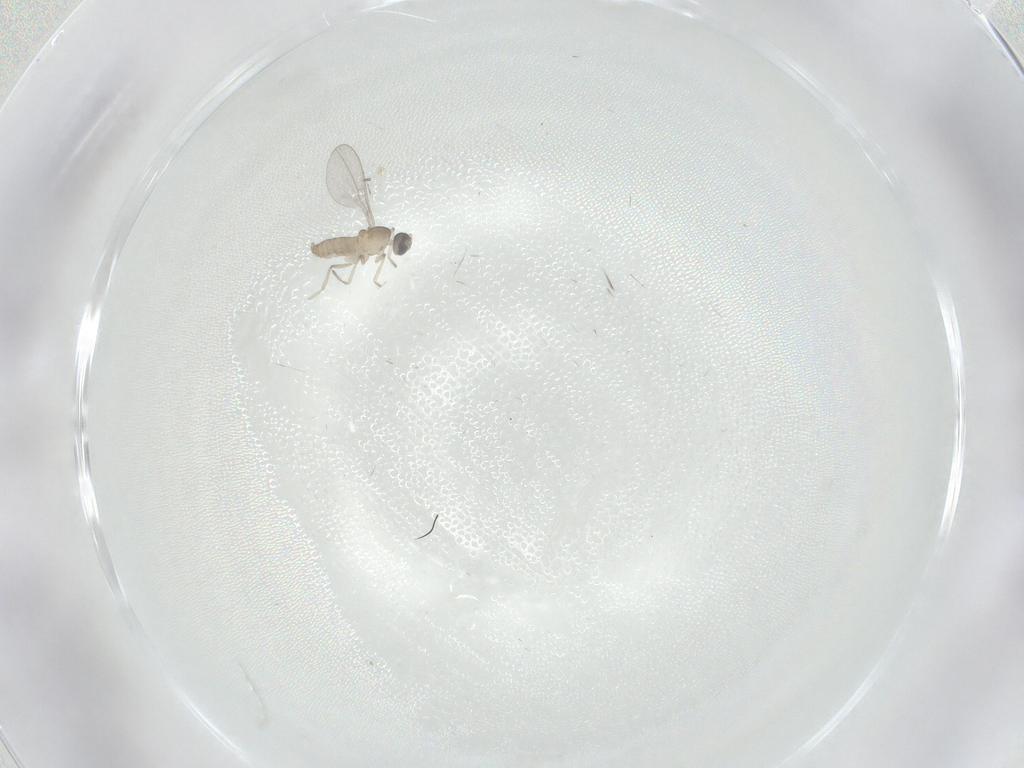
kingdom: Animalia
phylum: Arthropoda
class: Insecta
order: Diptera
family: Cecidomyiidae
